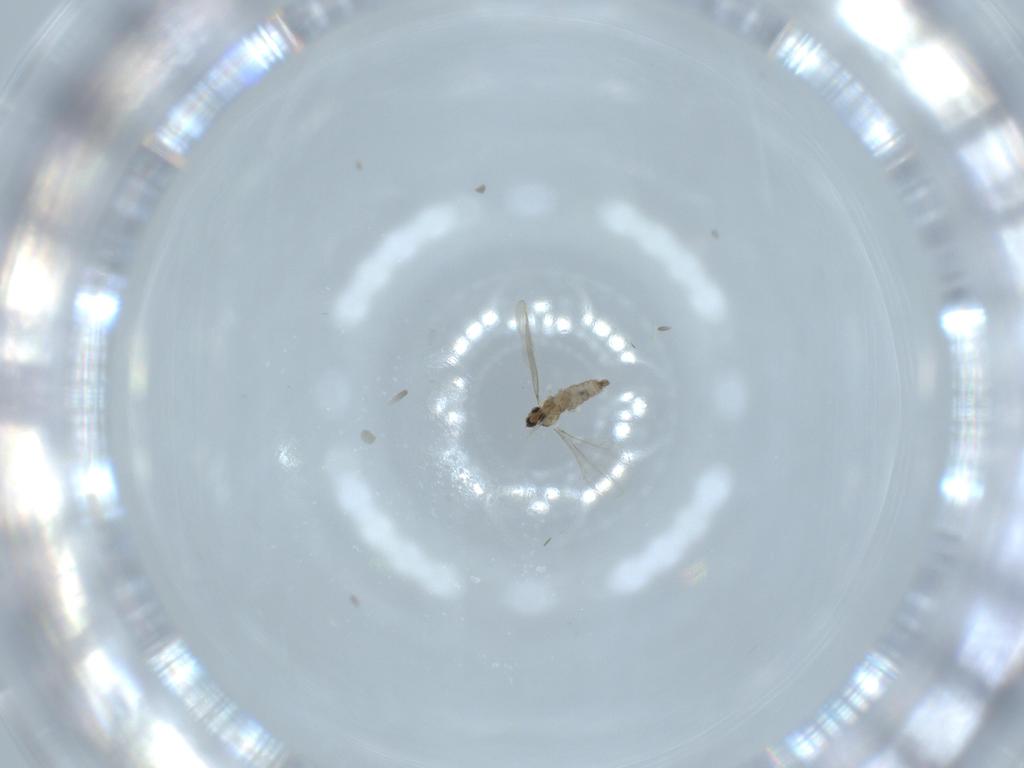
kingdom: Animalia
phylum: Arthropoda
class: Insecta
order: Diptera
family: Cecidomyiidae
